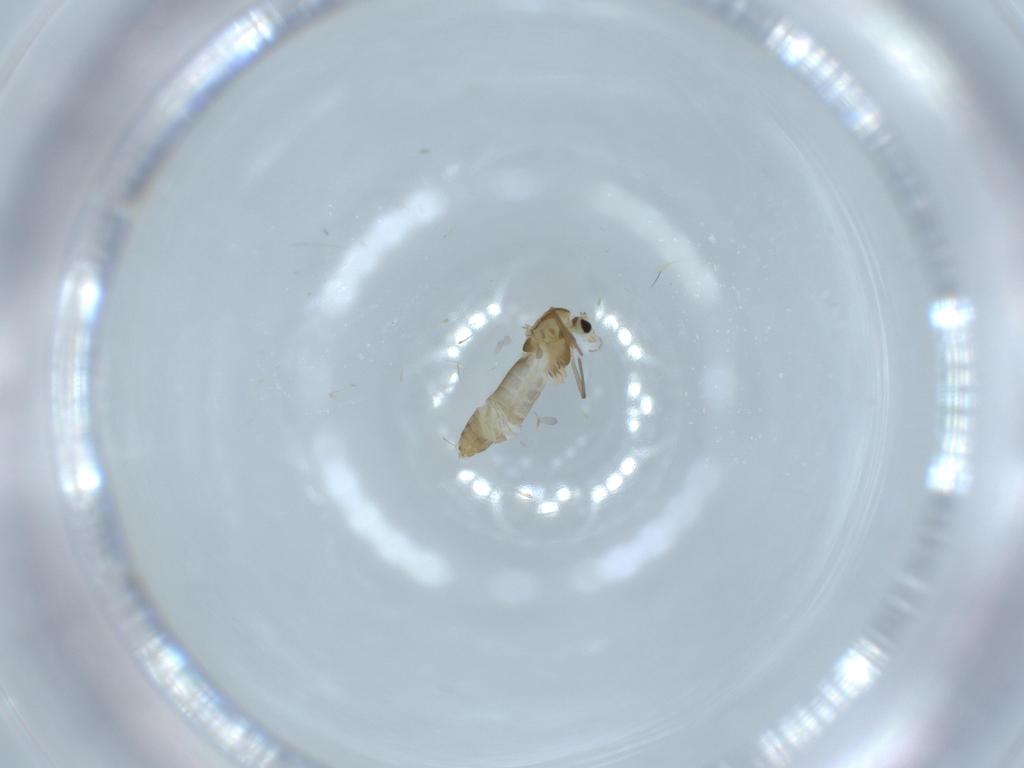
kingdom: Animalia
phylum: Arthropoda
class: Insecta
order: Diptera
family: Chironomidae
